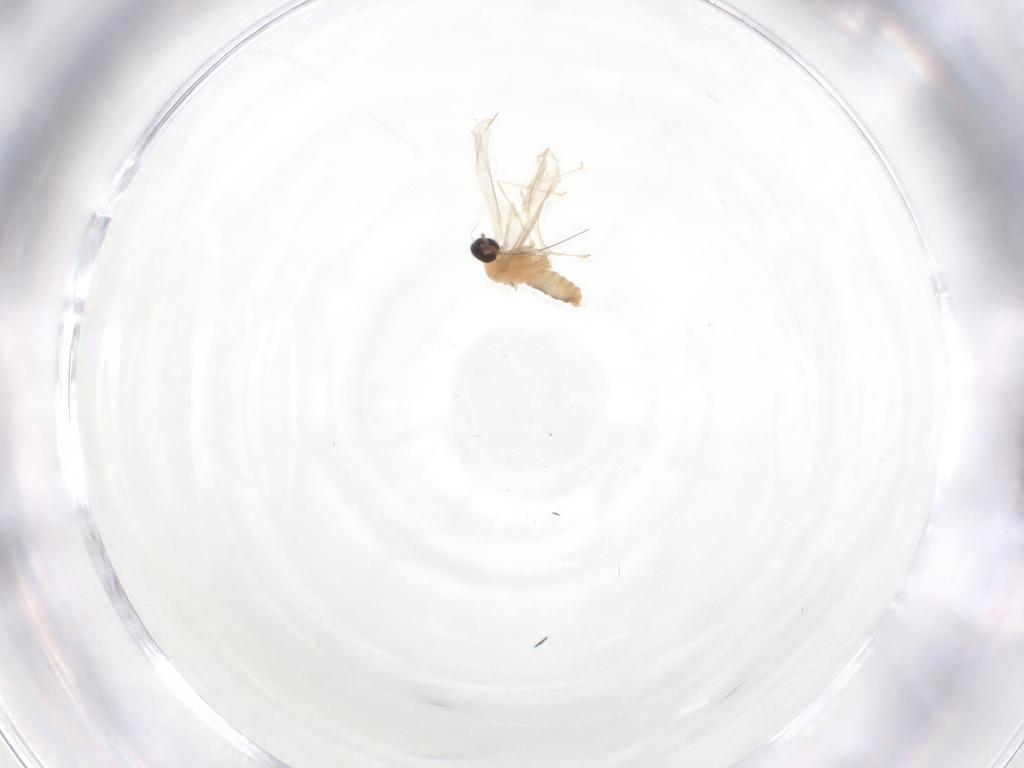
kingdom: Animalia
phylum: Arthropoda
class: Insecta
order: Diptera
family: Cecidomyiidae
